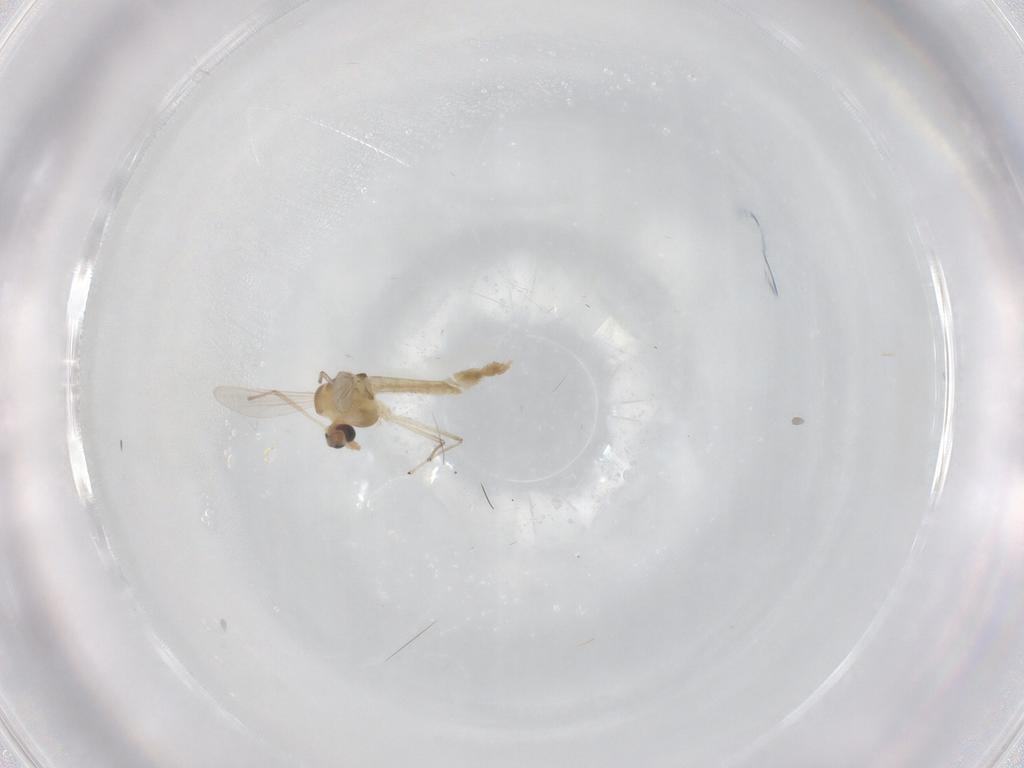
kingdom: Animalia
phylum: Arthropoda
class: Insecta
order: Diptera
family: Chironomidae
